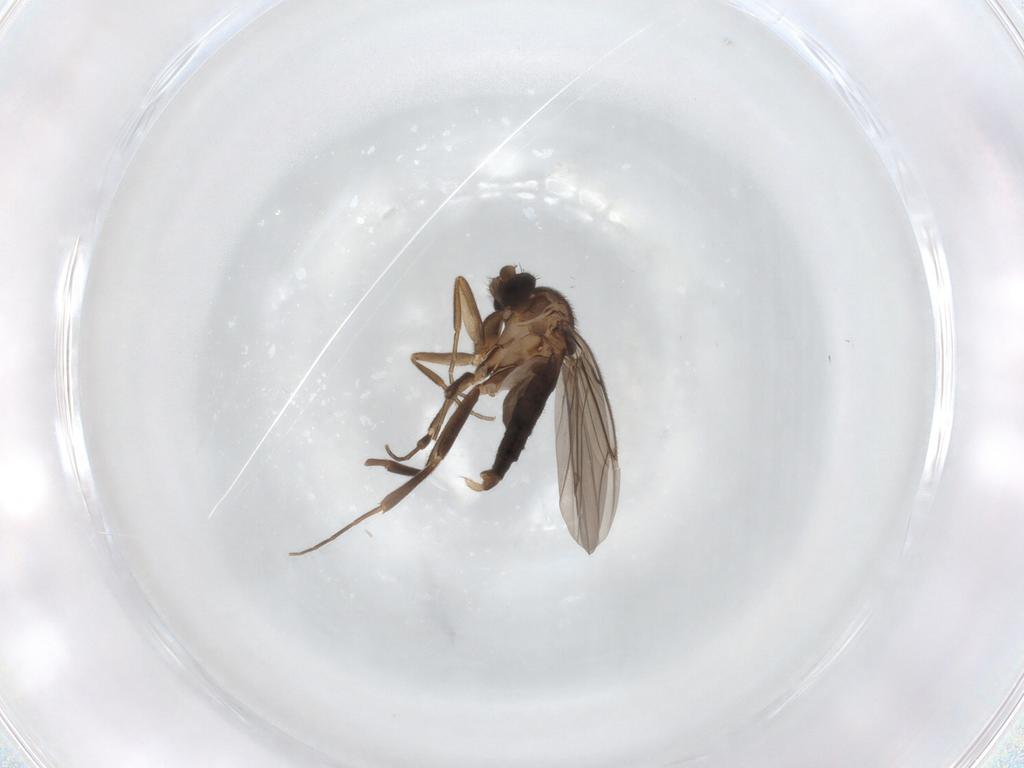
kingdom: Animalia
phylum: Arthropoda
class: Insecta
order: Diptera
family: Phoridae
